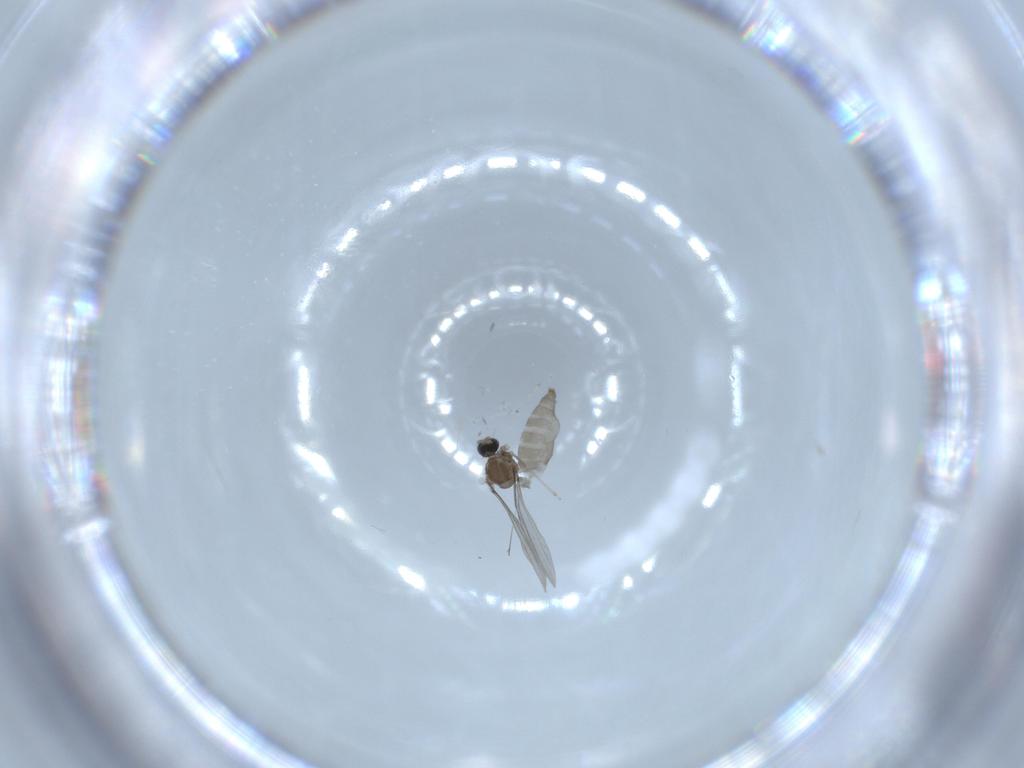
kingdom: Animalia
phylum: Arthropoda
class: Insecta
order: Diptera
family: Cecidomyiidae
